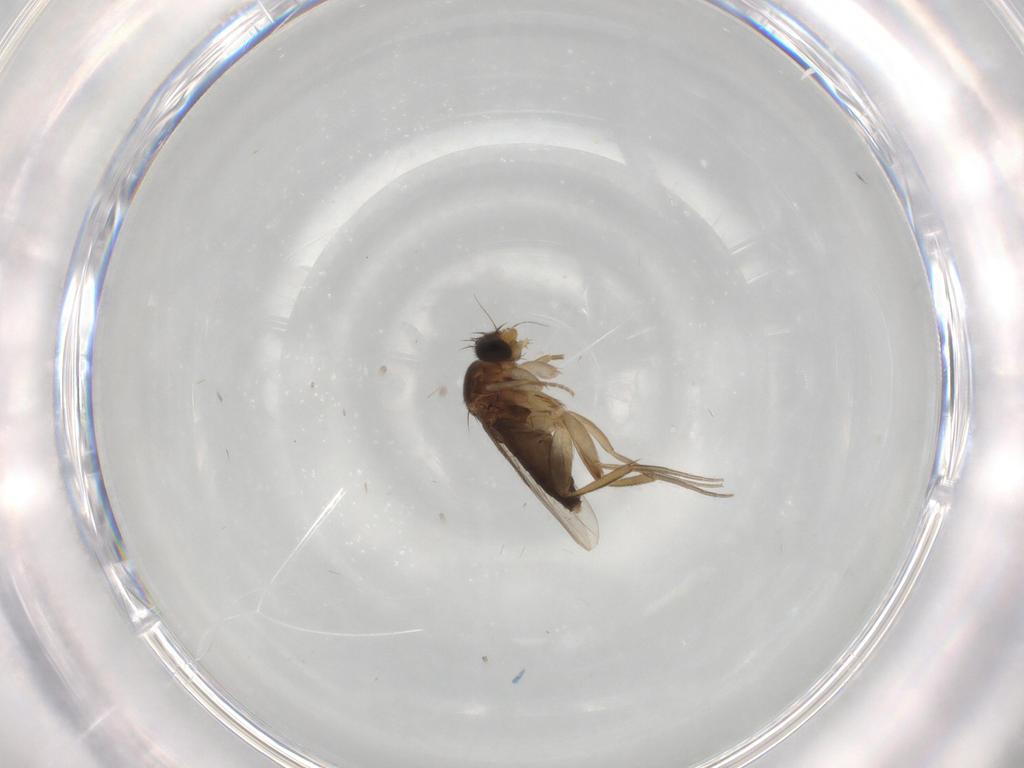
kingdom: Animalia
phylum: Arthropoda
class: Insecta
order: Diptera
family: Phoridae
